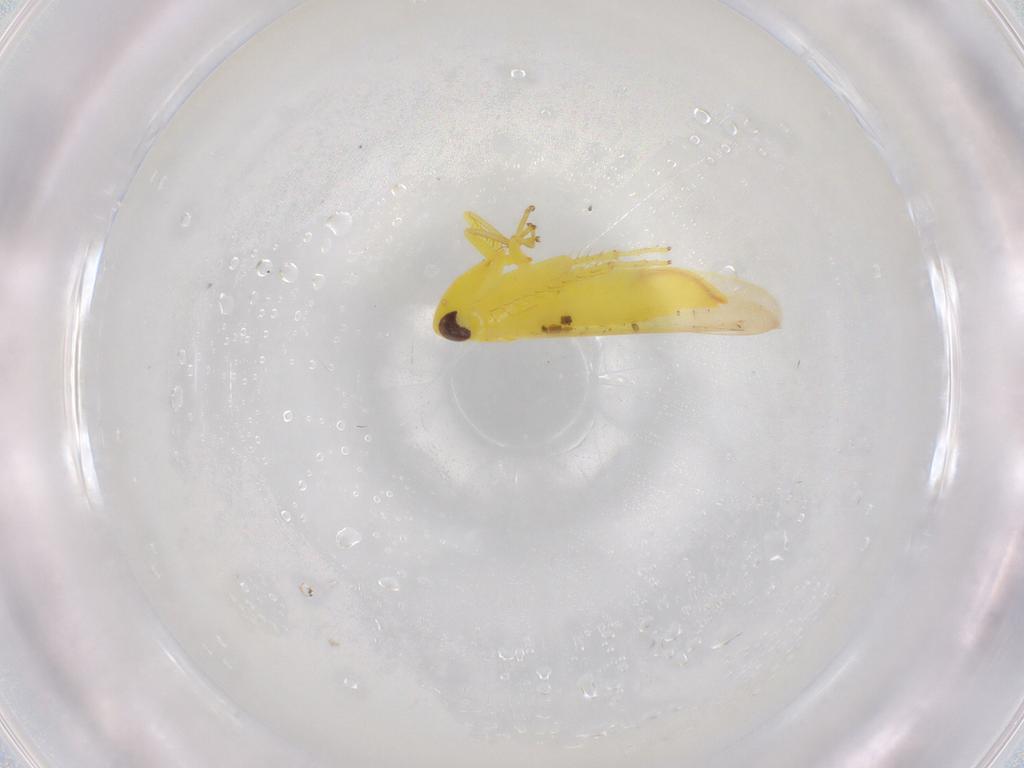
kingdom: Animalia
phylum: Arthropoda
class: Insecta
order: Hemiptera
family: Cicadellidae
